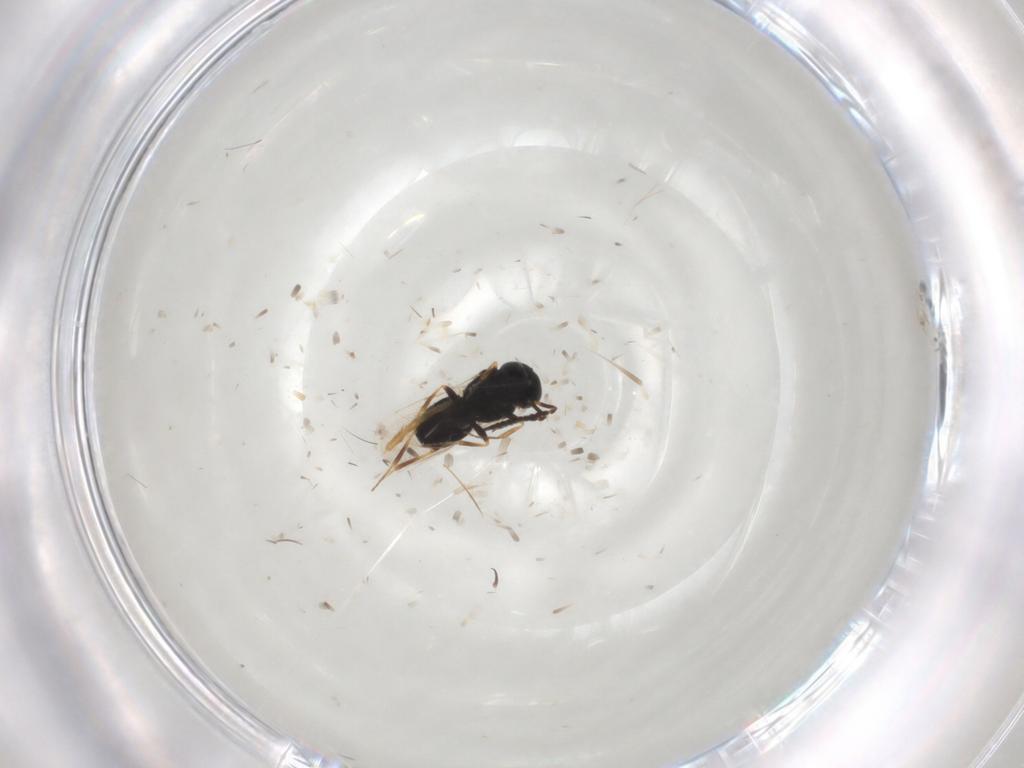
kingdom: Animalia
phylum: Arthropoda
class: Insecta
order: Hymenoptera
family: Scelionidae
